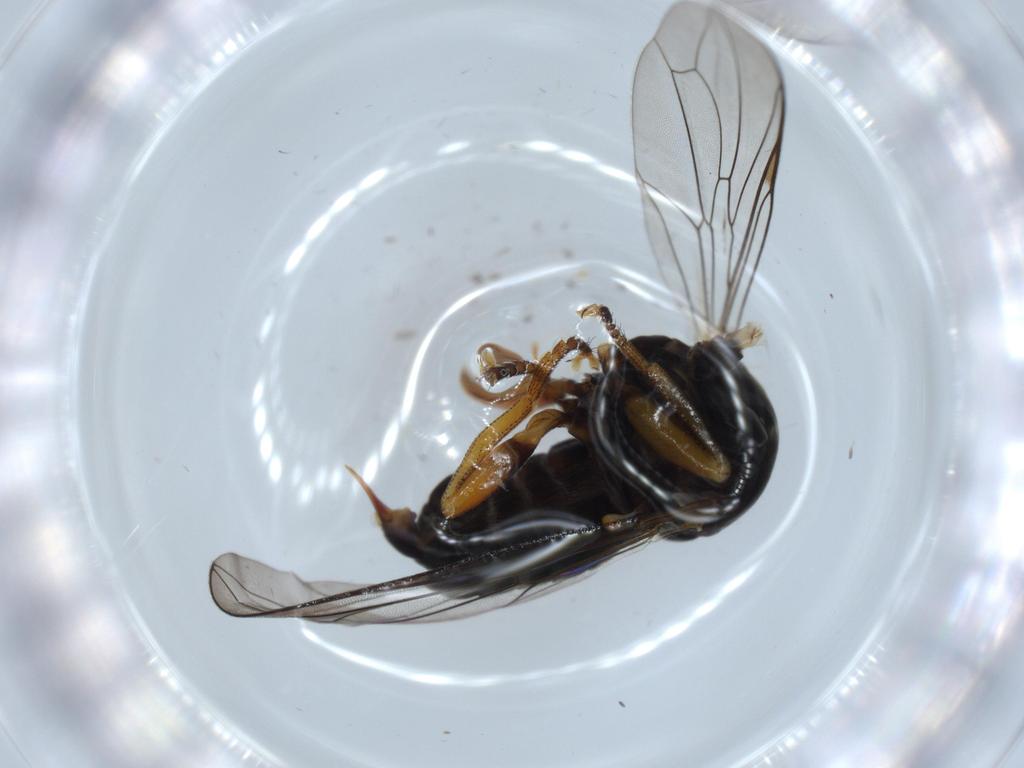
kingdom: Animalia
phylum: Arthropoda
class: Insecta
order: Diptera
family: Pipunculidae
